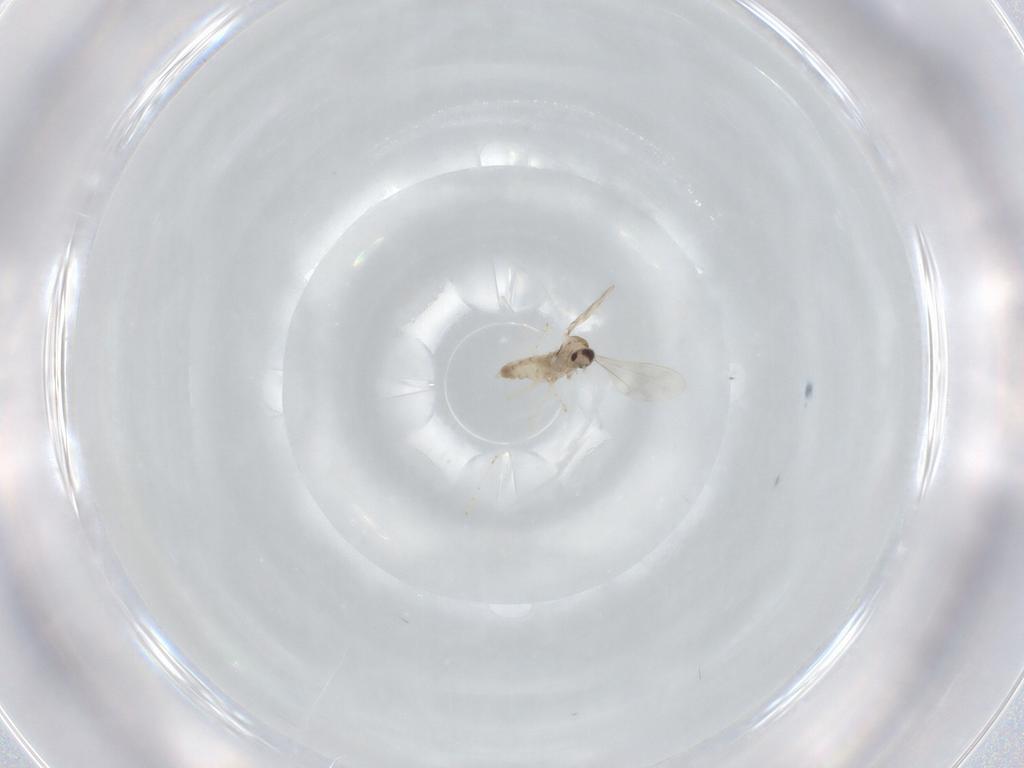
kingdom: Animalia
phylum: Arthropoda
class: Insecta
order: Diptera
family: Cecidomyiidae
